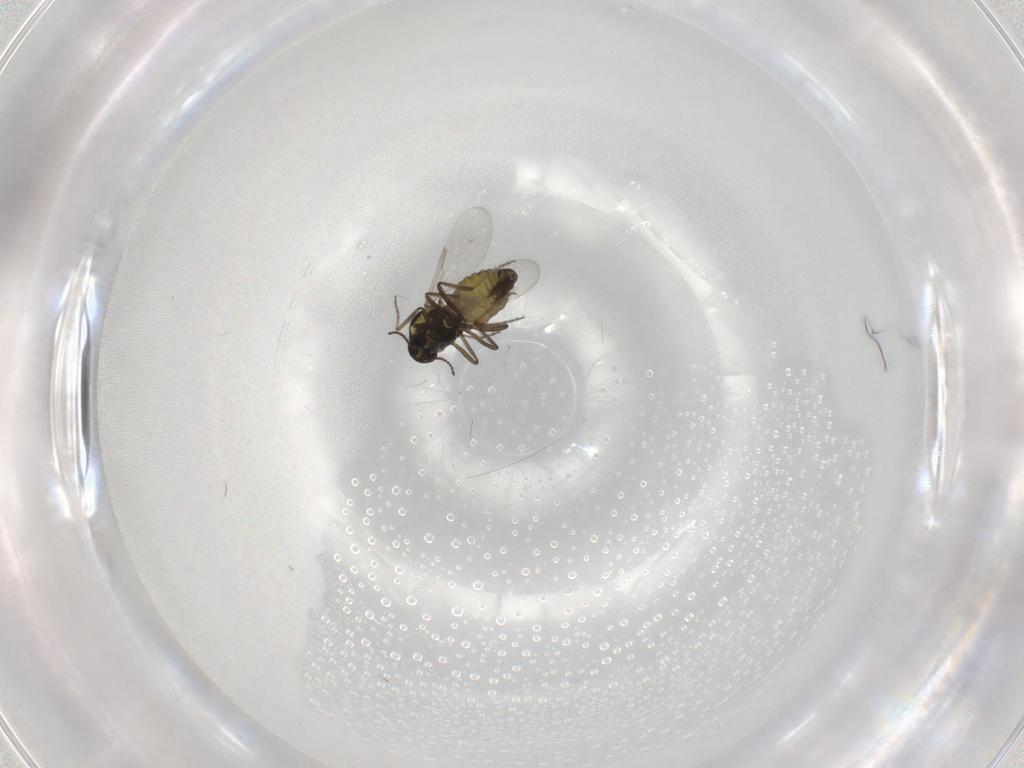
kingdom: Animalia
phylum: Arthropoda
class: Insecta
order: Diptera
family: Ceratopogonidae
